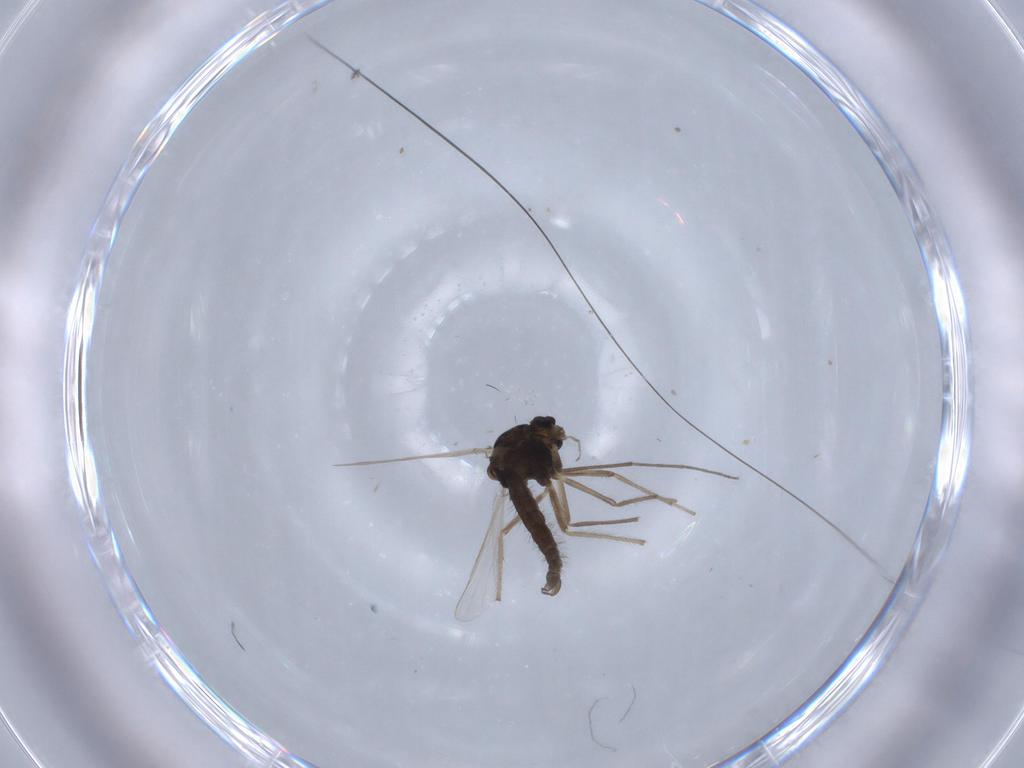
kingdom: Animalia
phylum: Arthropoda
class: Insecta
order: Diptera
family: Chironomidae
